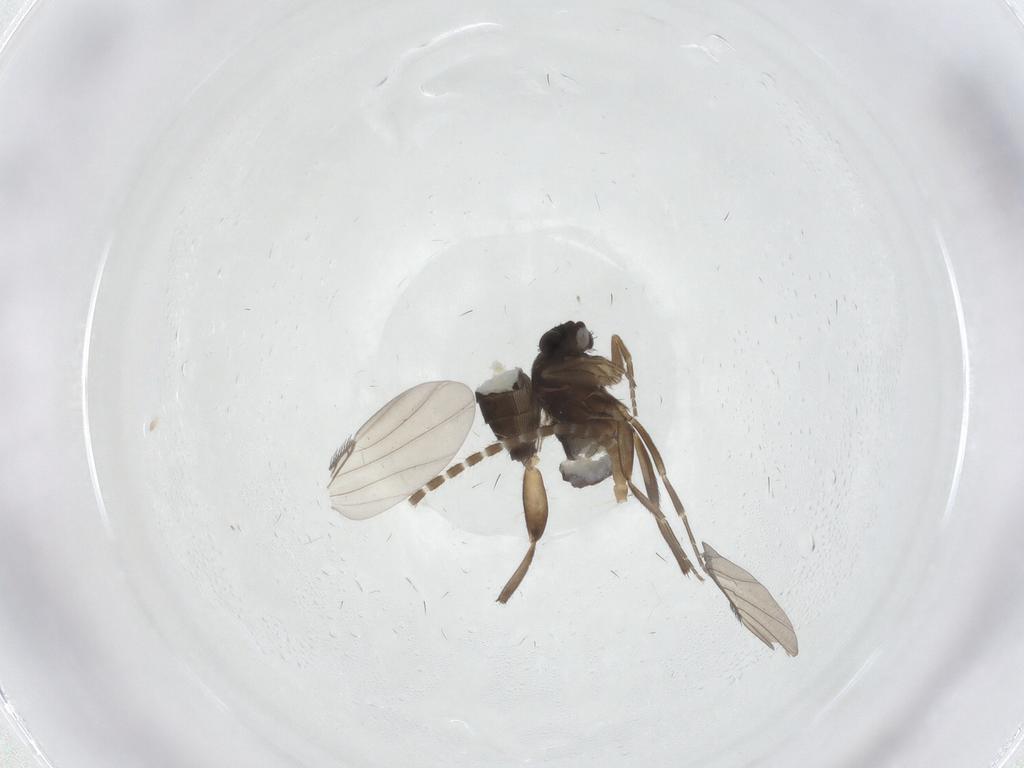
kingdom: Animalia
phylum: Arthropoda
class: Insecta
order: Diptera
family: Phoridae
